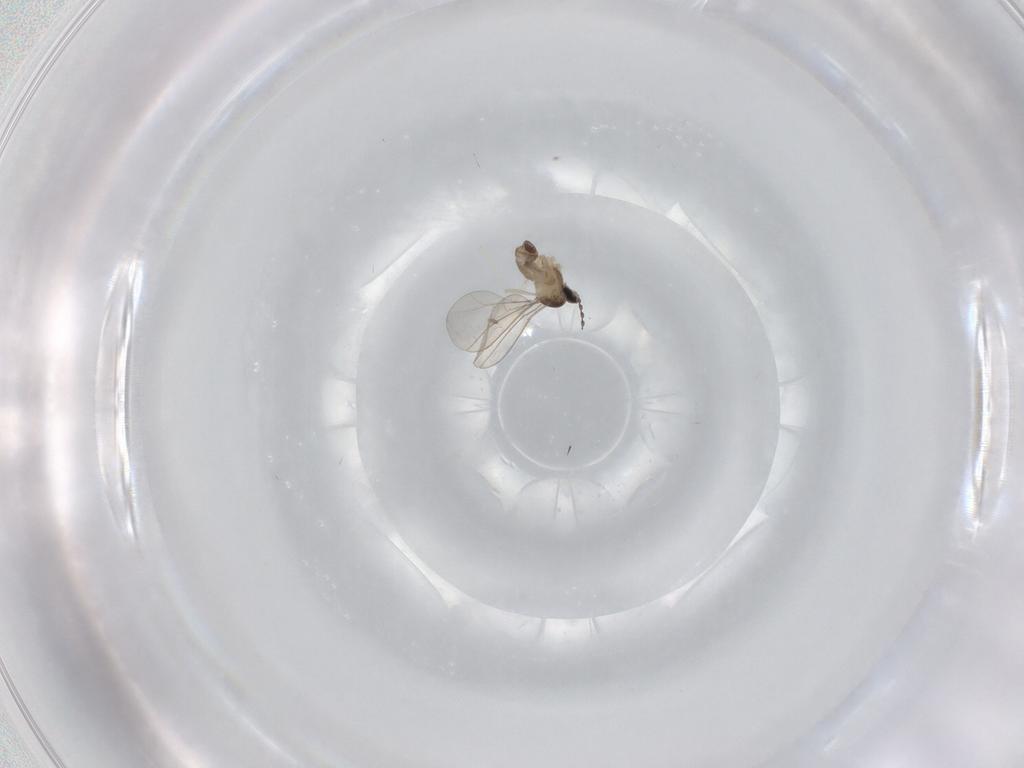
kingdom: Animalia
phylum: Arthropoda
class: Insecta
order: Diptera
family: Cecidomyiidae
